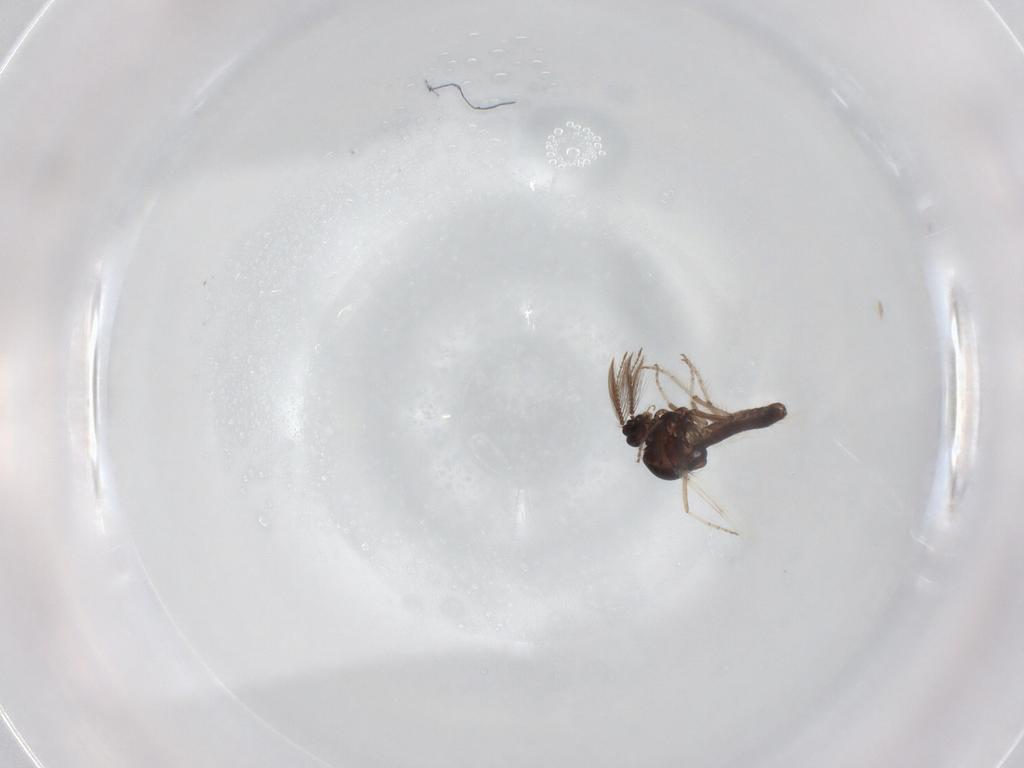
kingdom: Animalia
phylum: Arthropoda
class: Insecta
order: Diptera
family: Ceratopogonidae
